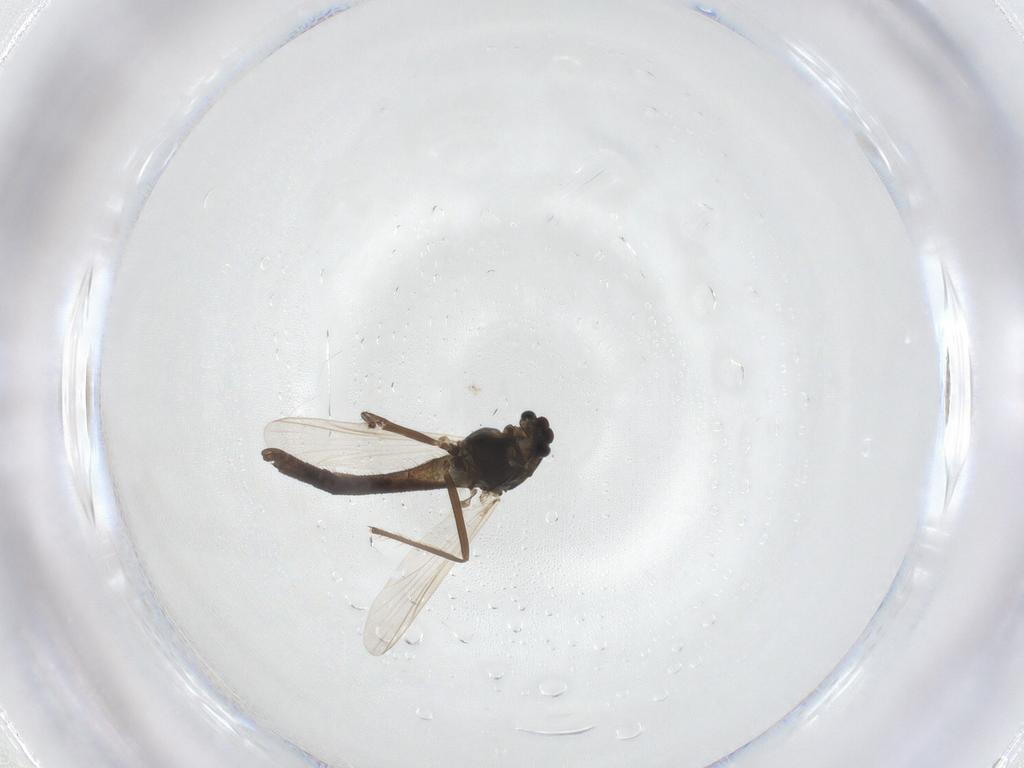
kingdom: Animalia
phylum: Arthropoda
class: Insecta
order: Diptera
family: Chironomidae
